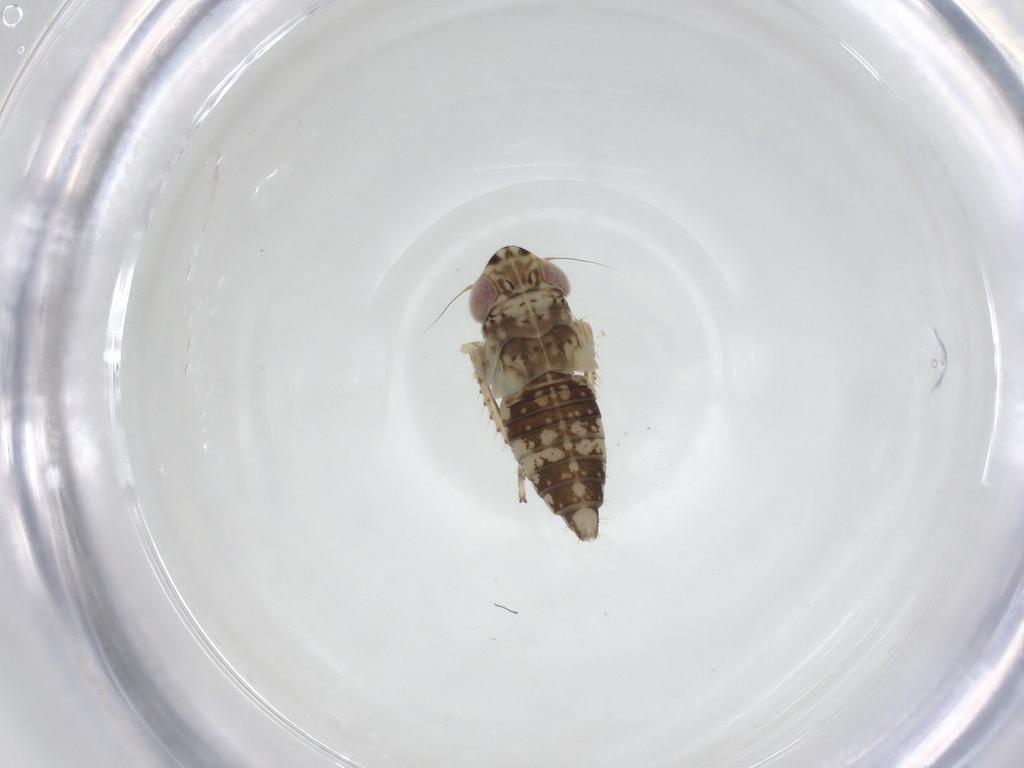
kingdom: Animalia
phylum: Arthropoda
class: Insecta
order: Hemiptera
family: Cicadellidae
